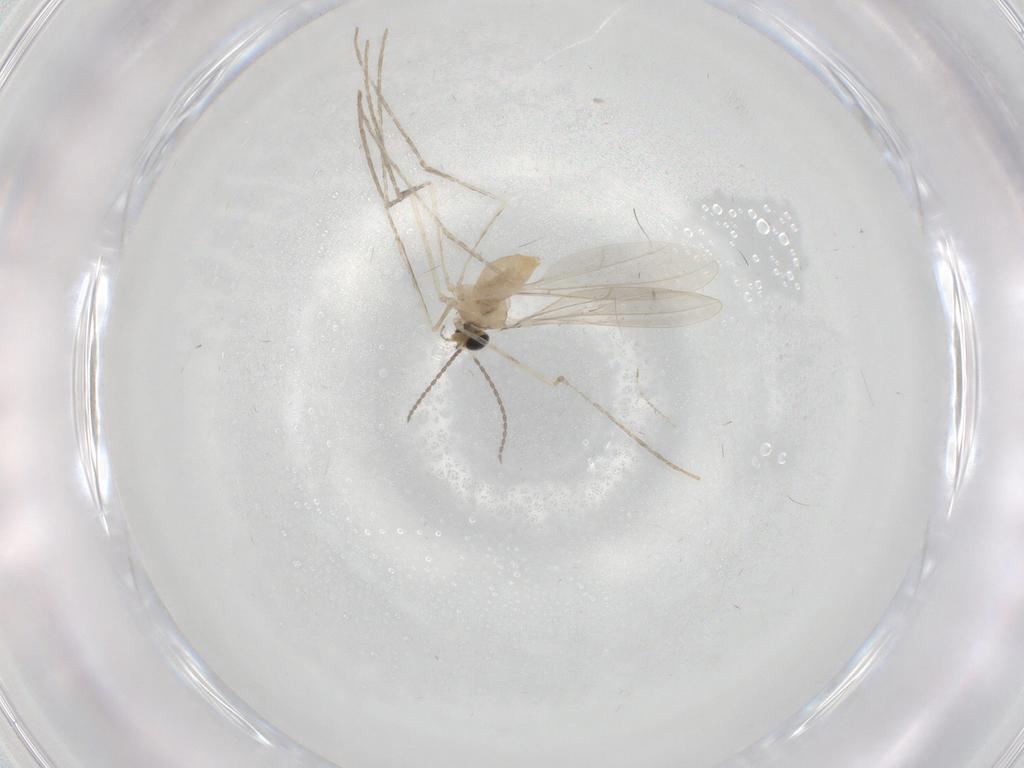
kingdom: Animalia
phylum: Arthropoda
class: Insecta
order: Diptera
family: Cecidomyiidae
